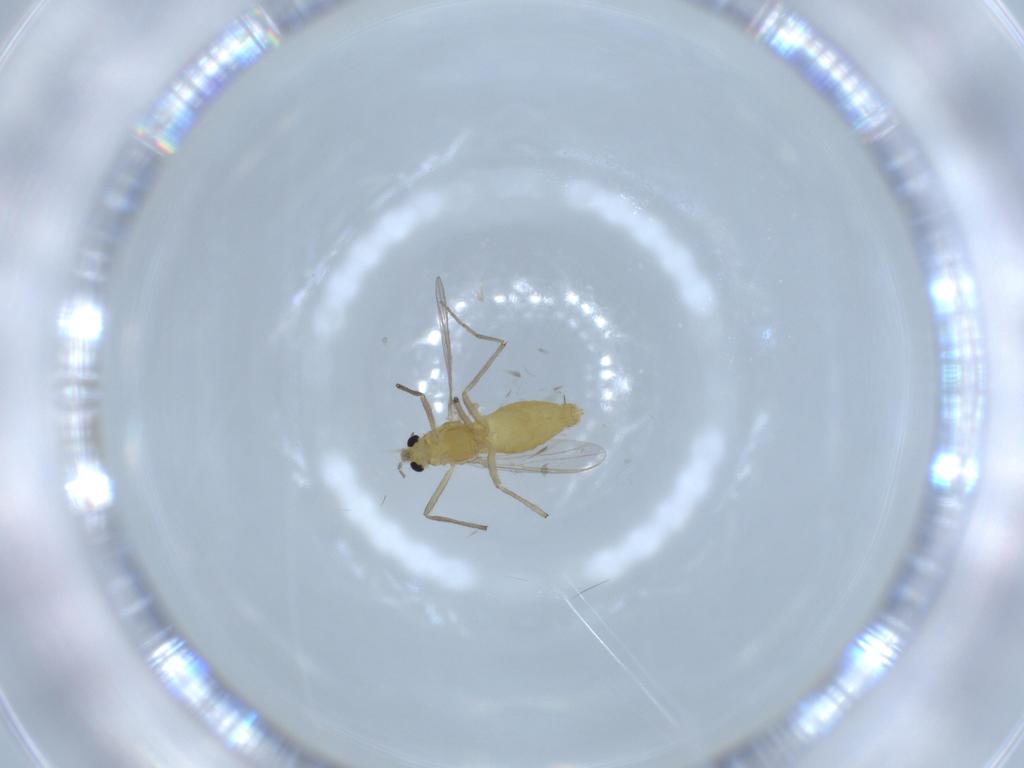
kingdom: Animalia
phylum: Arthropoda
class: Insecta
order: Diptera
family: Chironomidae
